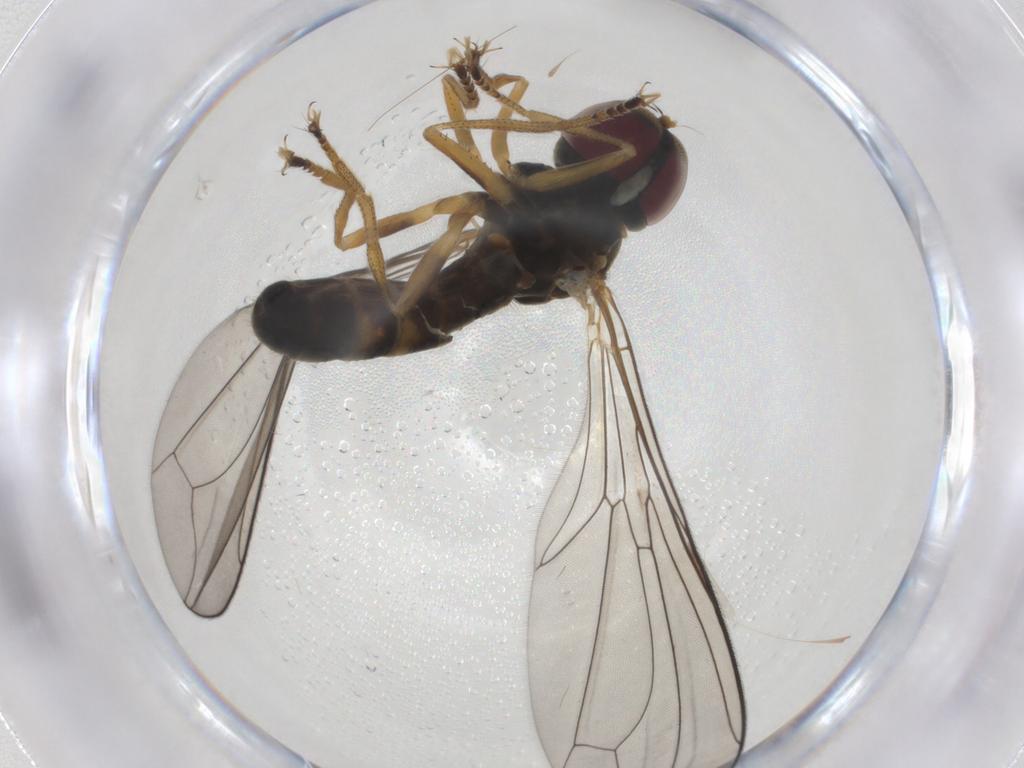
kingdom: Animalia
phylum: Arthropoda
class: Insecta
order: Diptera
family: Pipunculidae
